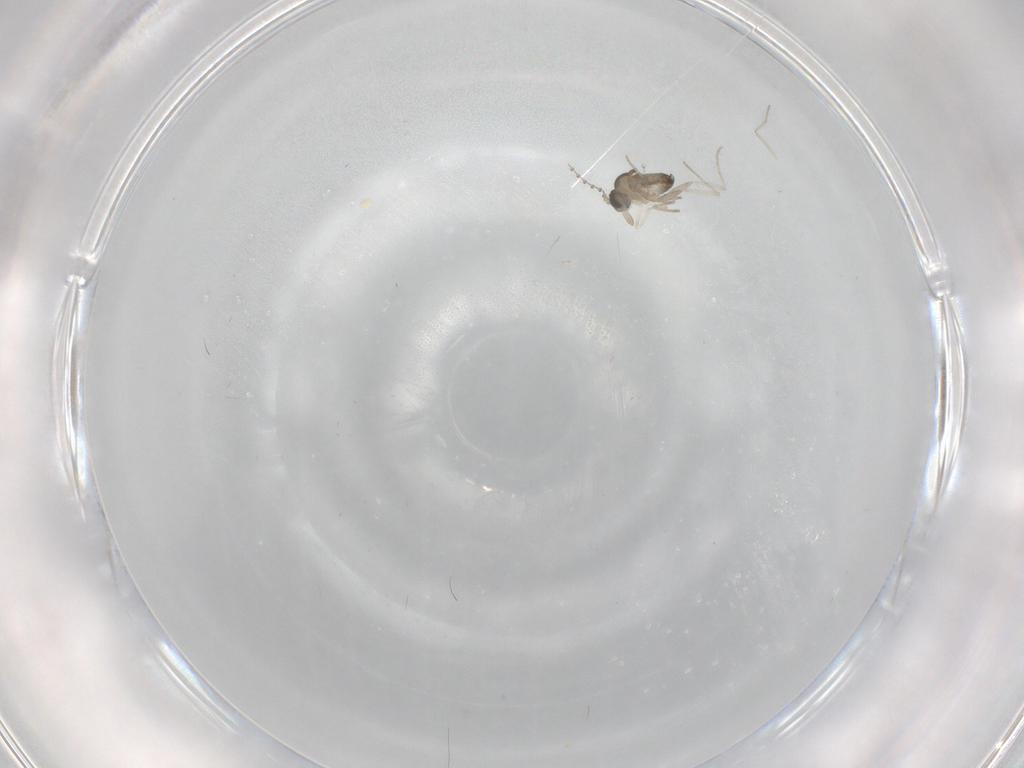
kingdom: Animalia
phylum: Arthropoda
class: Insecta
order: Diptera
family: Cecidomyiidae
